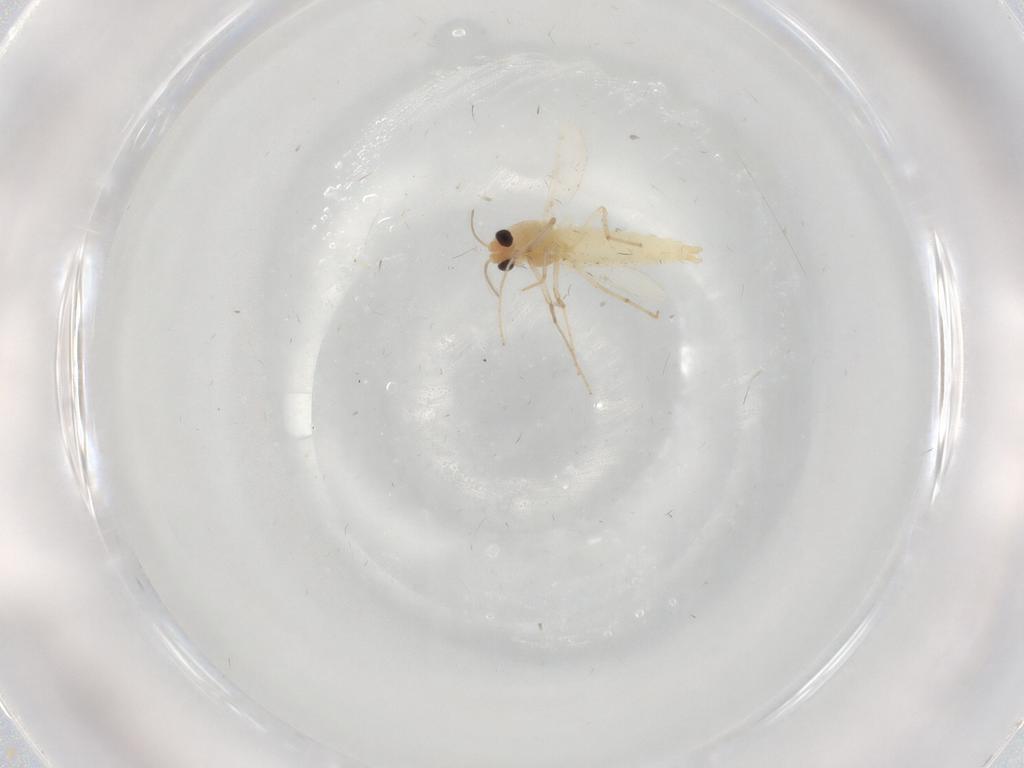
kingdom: Animalia
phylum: Arthropoda
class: Insecta
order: Diptera
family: Chironomidae
